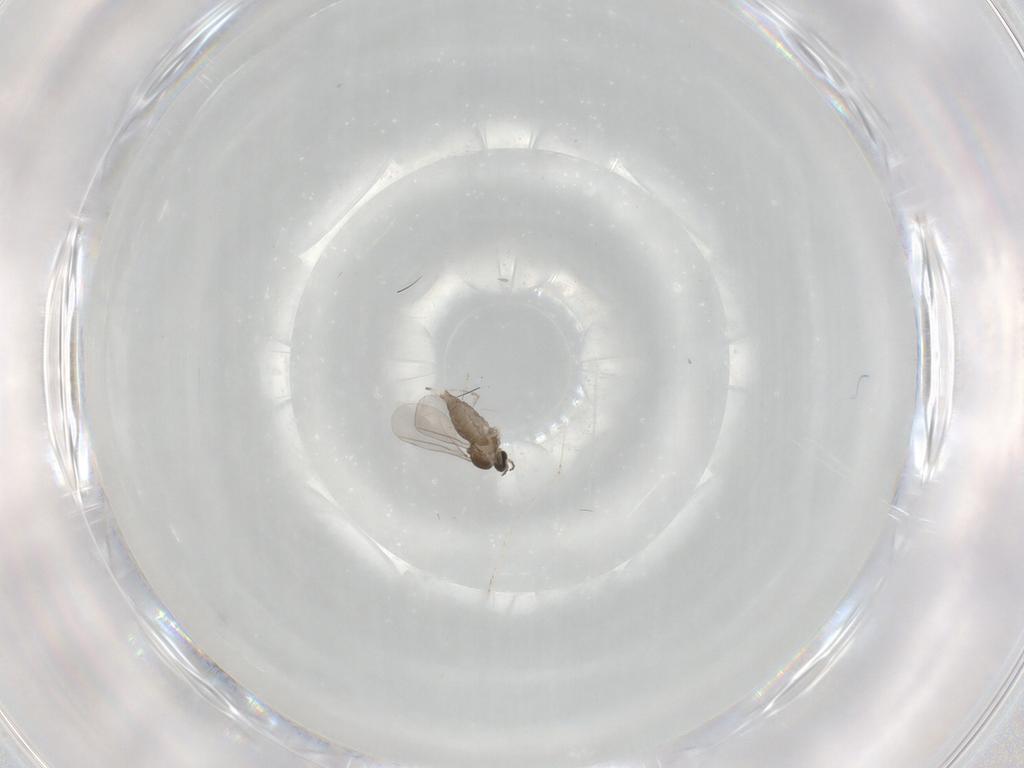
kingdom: Animalia
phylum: Arthropoda
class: Insecta
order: Diptera
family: Cecidomyiidae
